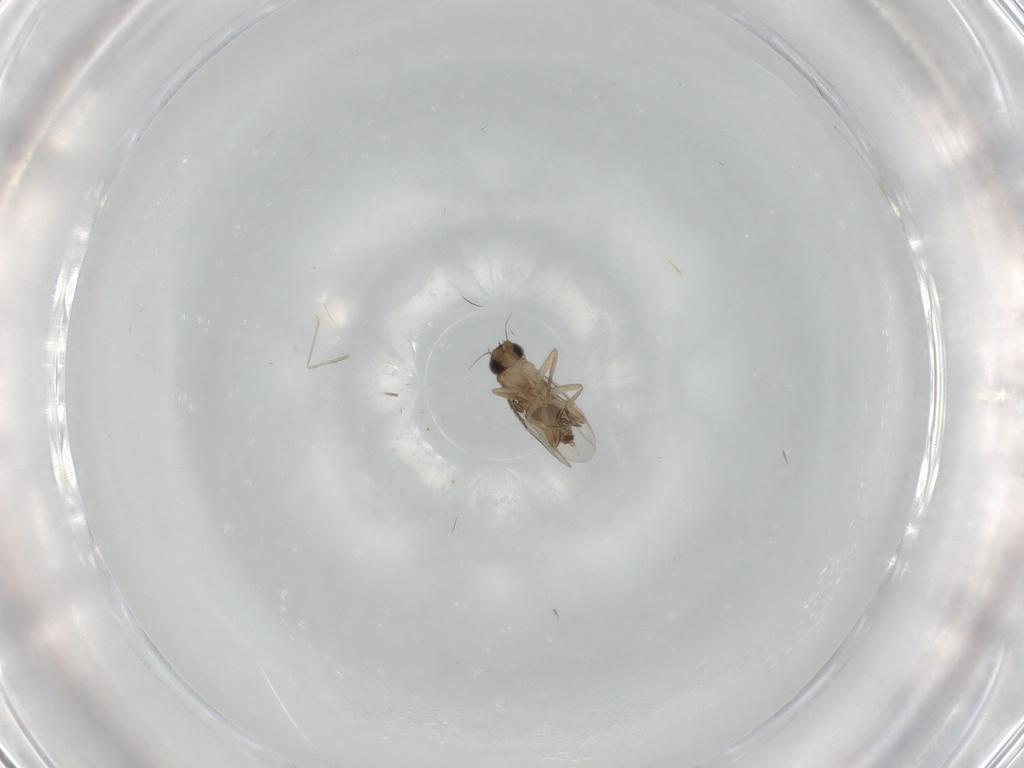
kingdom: Animalia
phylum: Arthropoda
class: Insecta
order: Diptera
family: Phoridae
